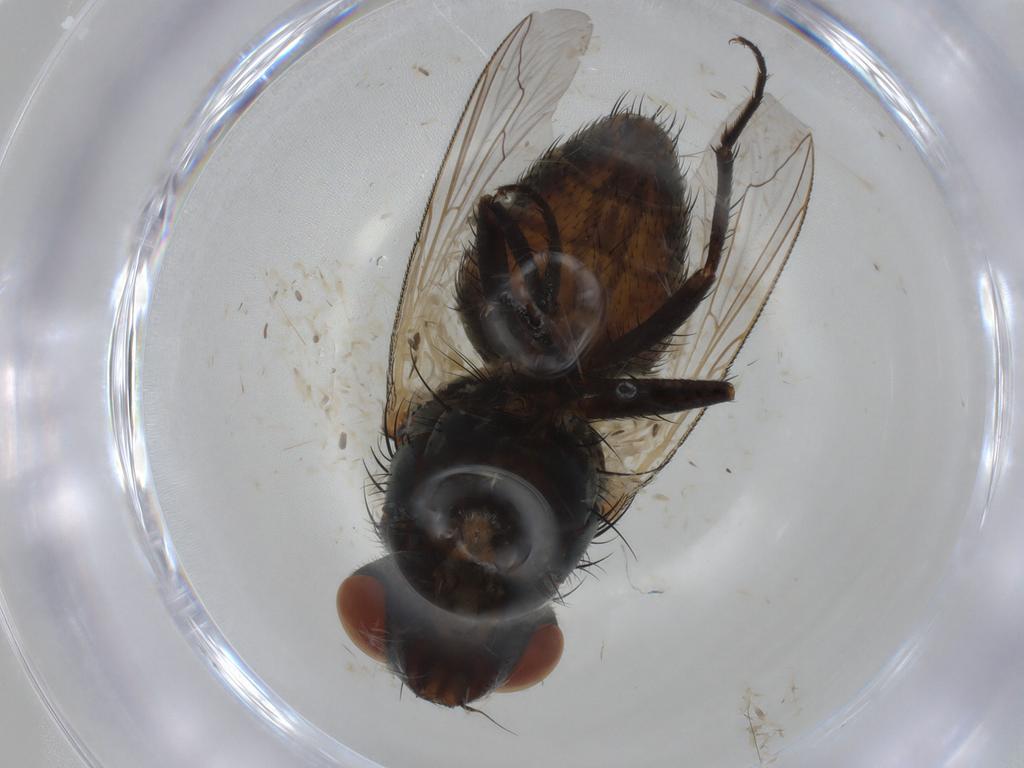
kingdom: Animalia
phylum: Arthropoda
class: Insecta
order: Diptera
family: Sarcophagidae
